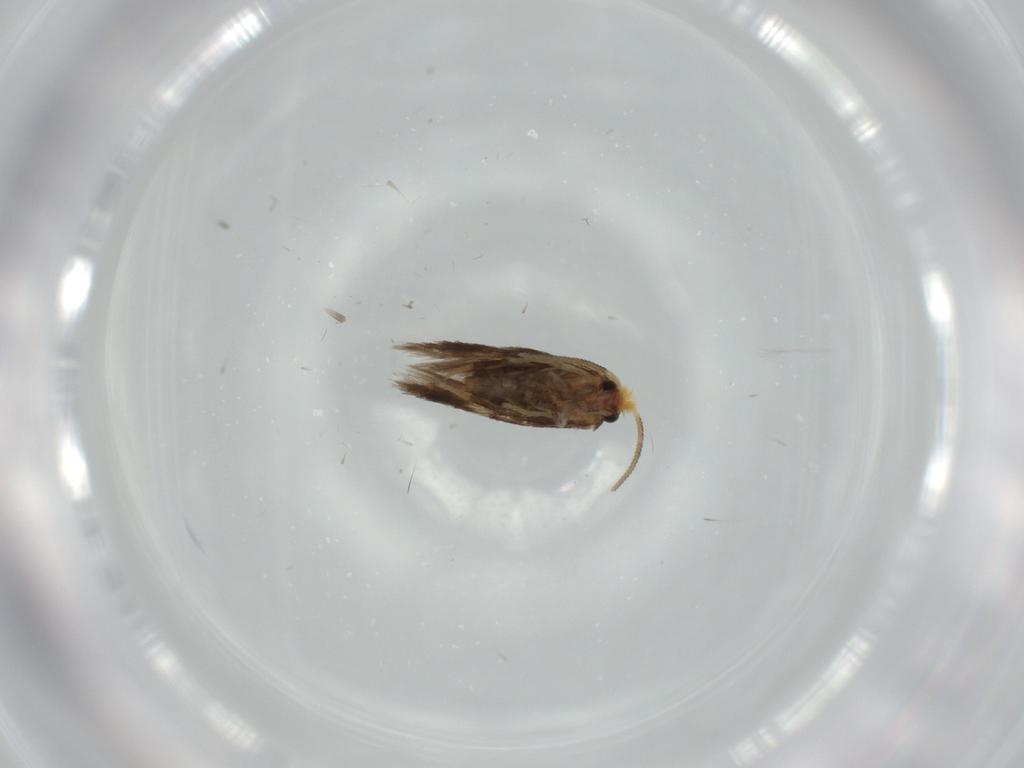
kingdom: Animalia
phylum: Arthropoda
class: Insecta
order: Lepidoptera
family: Nepticulidae
